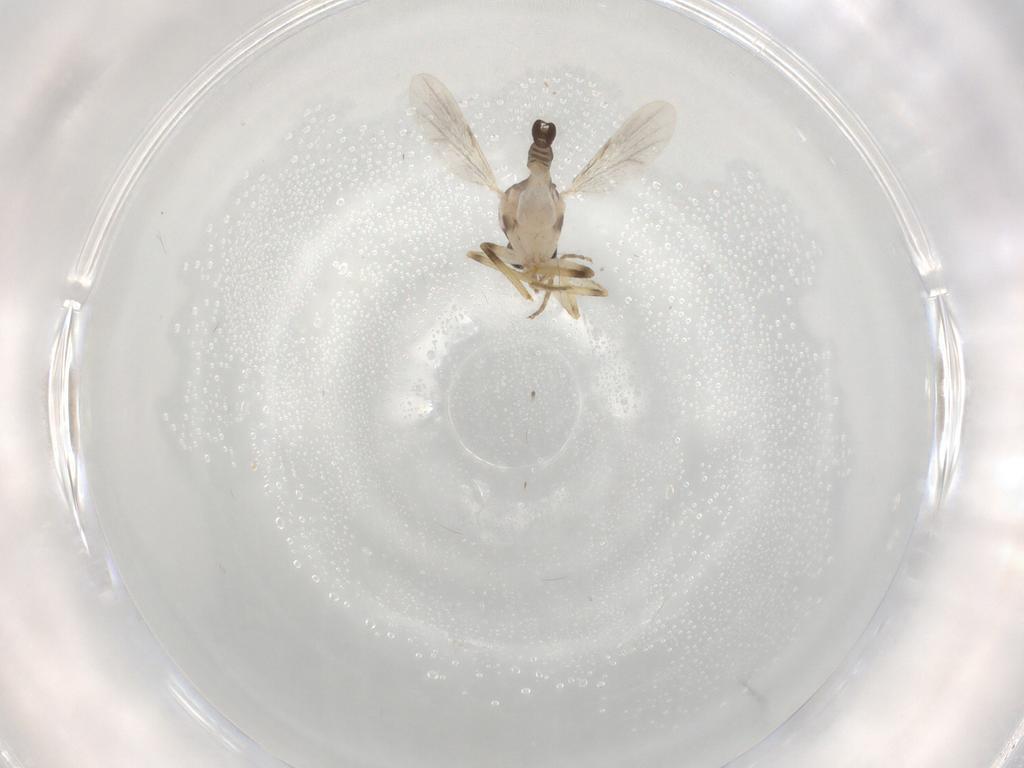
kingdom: Animalia
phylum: Arthropoda
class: Insecta
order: Diptera
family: Ceratopogonidae
